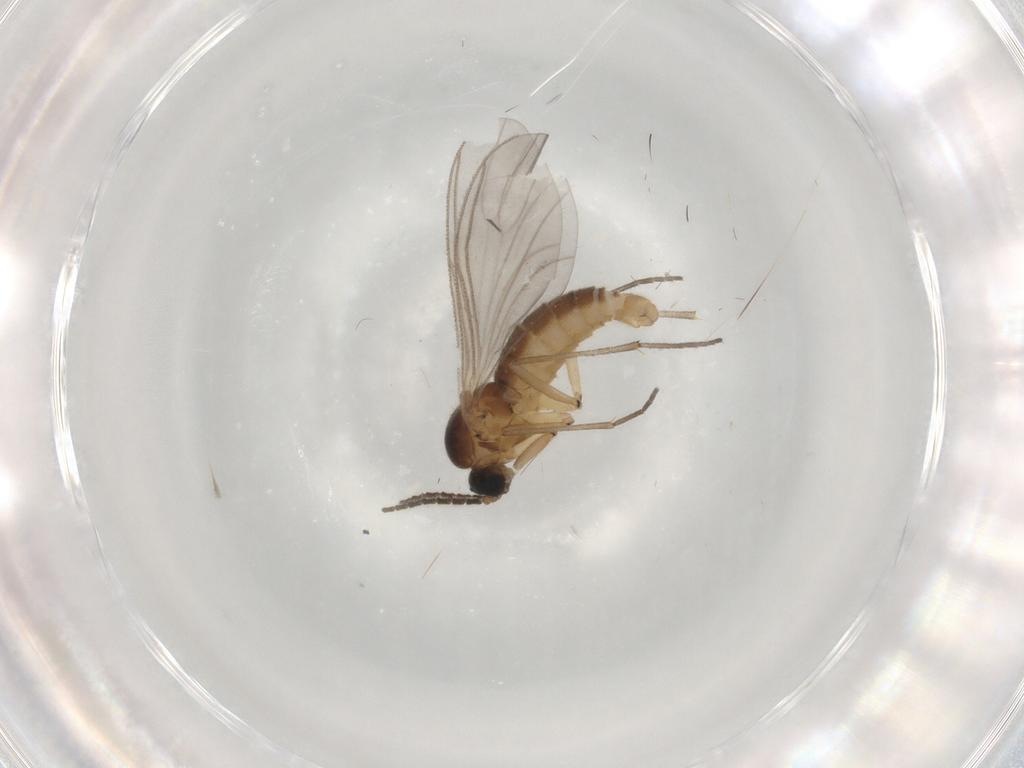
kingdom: Animalia
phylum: Arthropoda
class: Insecta
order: Diptera
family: Sciaridae
